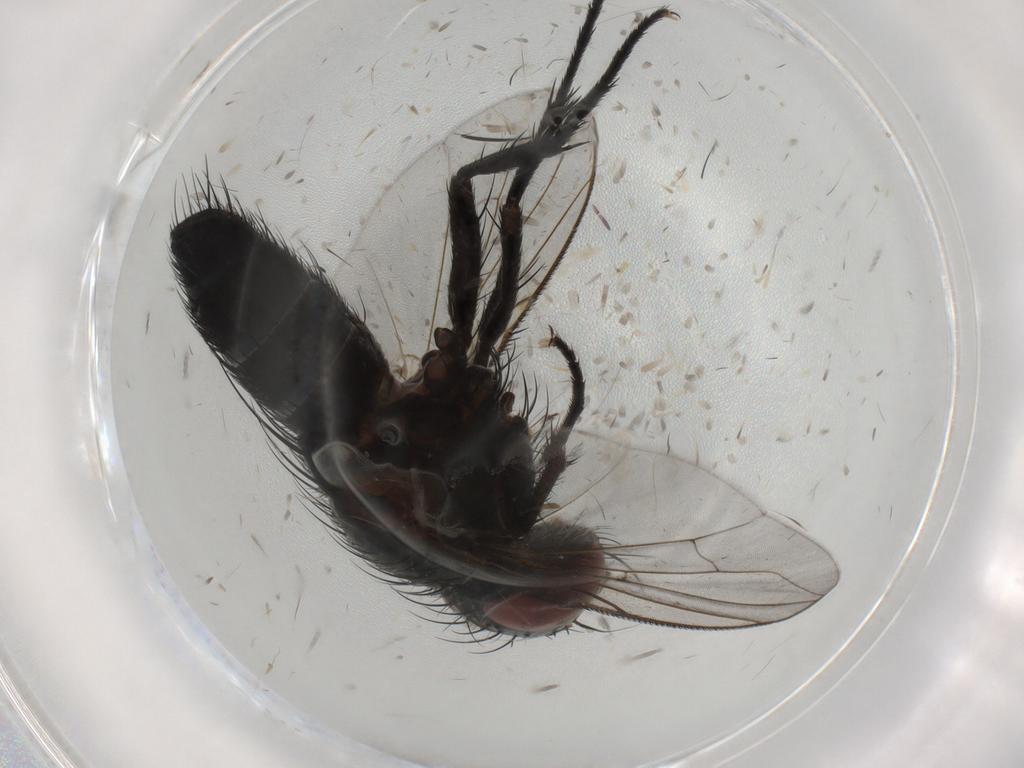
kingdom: Animalia
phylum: Arthropoda
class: Insecta
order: Diptera
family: Tachinidae
